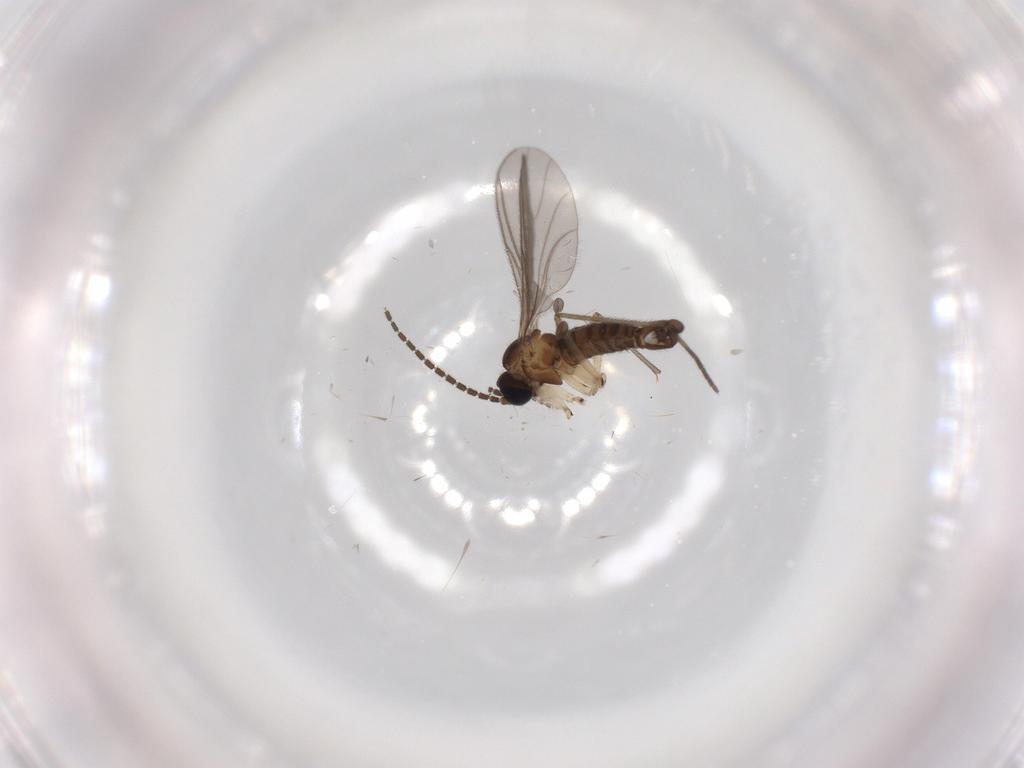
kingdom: Animalia
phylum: Arthropoda
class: Insecta
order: Diptera
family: Sciaridae
